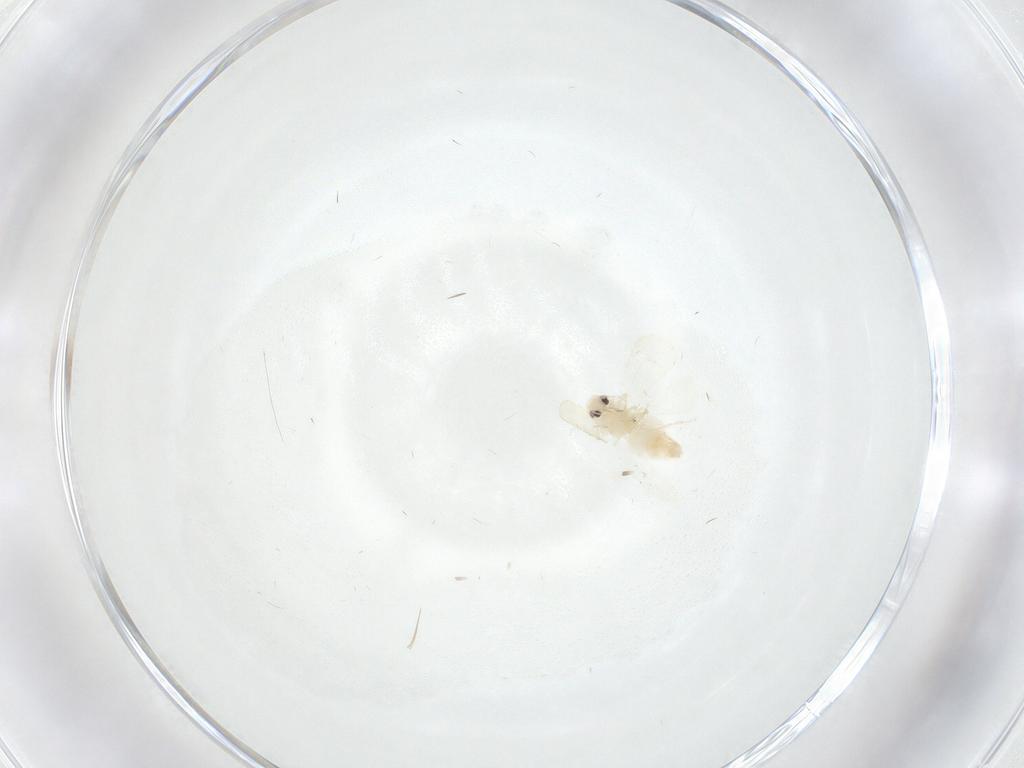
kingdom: Animalia
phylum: Arthropoda
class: Insecta
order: Hemiptera
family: Aleyrodidae
